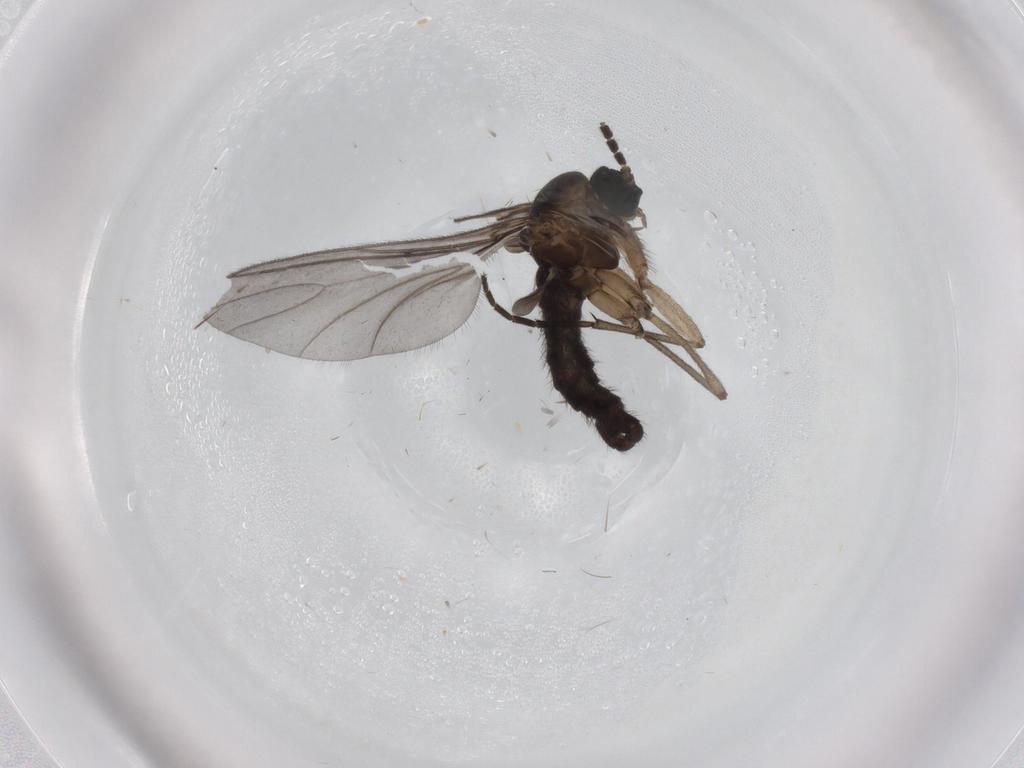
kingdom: Animalia
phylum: Arthropoda
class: Insecta
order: Diptera
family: Sciaridae
